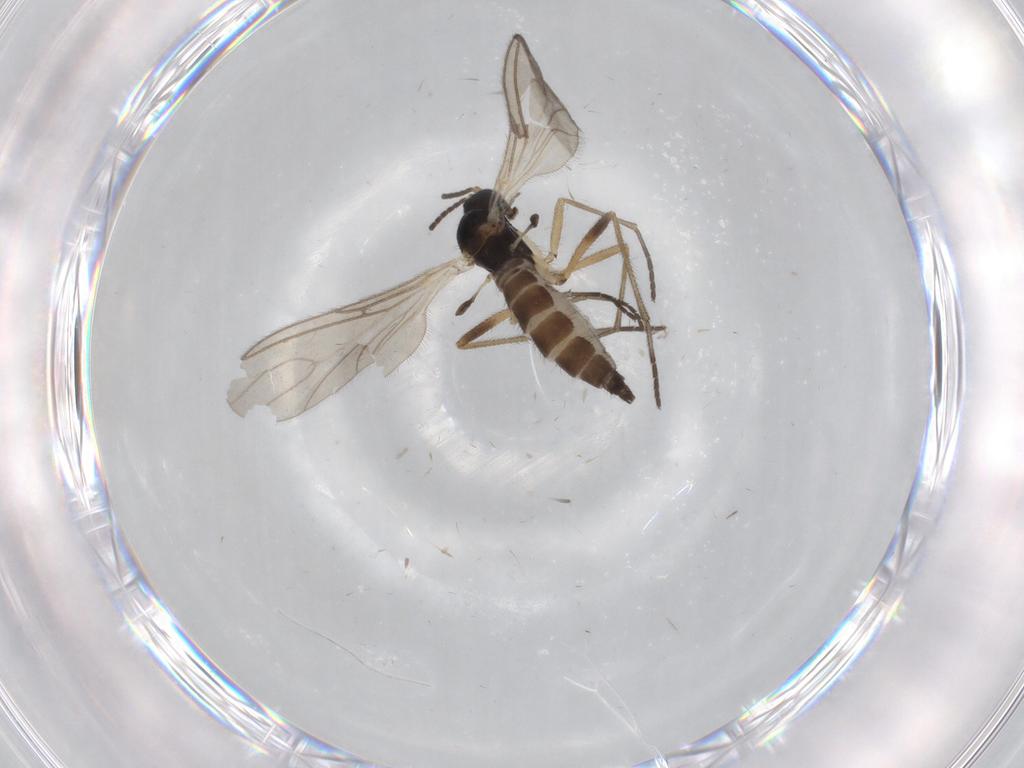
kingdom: Animalia
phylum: Arthropoda
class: Insecta
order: Diptera
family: Sciaridae
